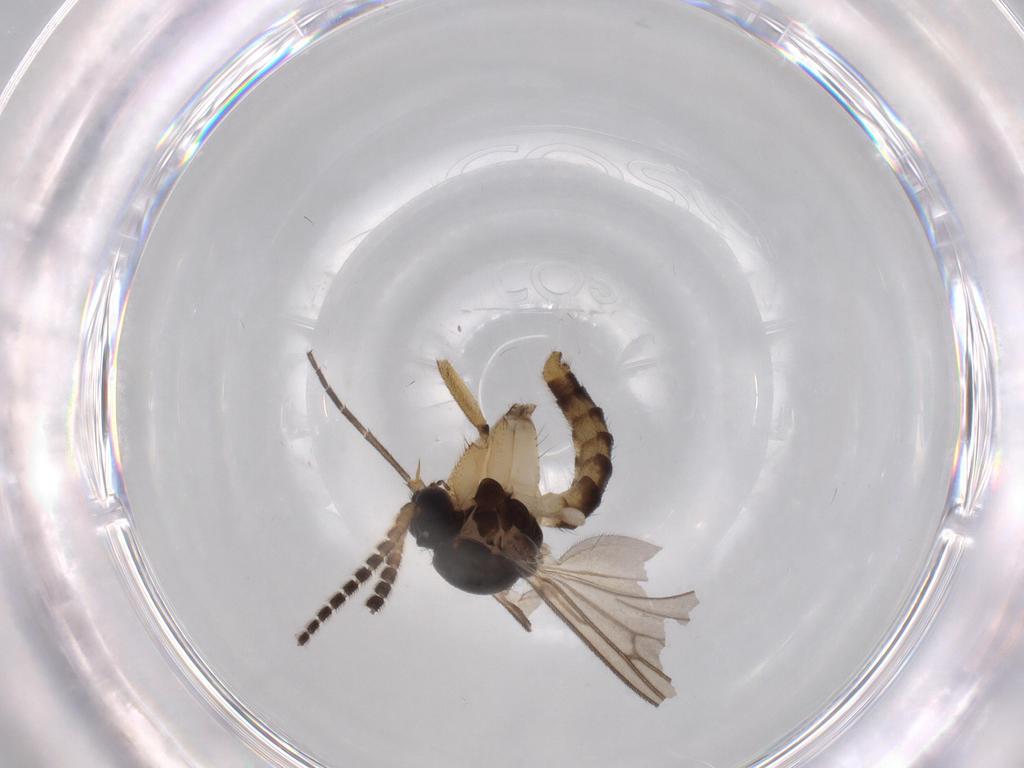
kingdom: Animalia
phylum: Arthropoda
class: Insecta
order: Diptera
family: Sciaridae
